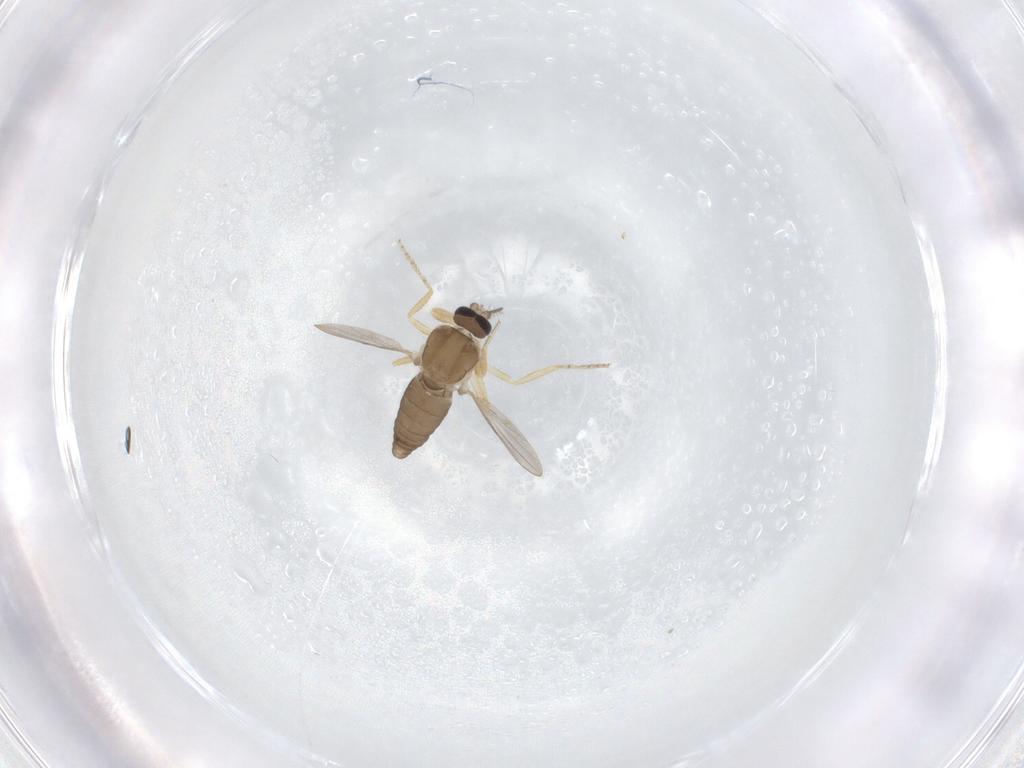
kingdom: Animalia
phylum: Arthropoda
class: Insecta
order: Diptera
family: Ceratopogonidae
